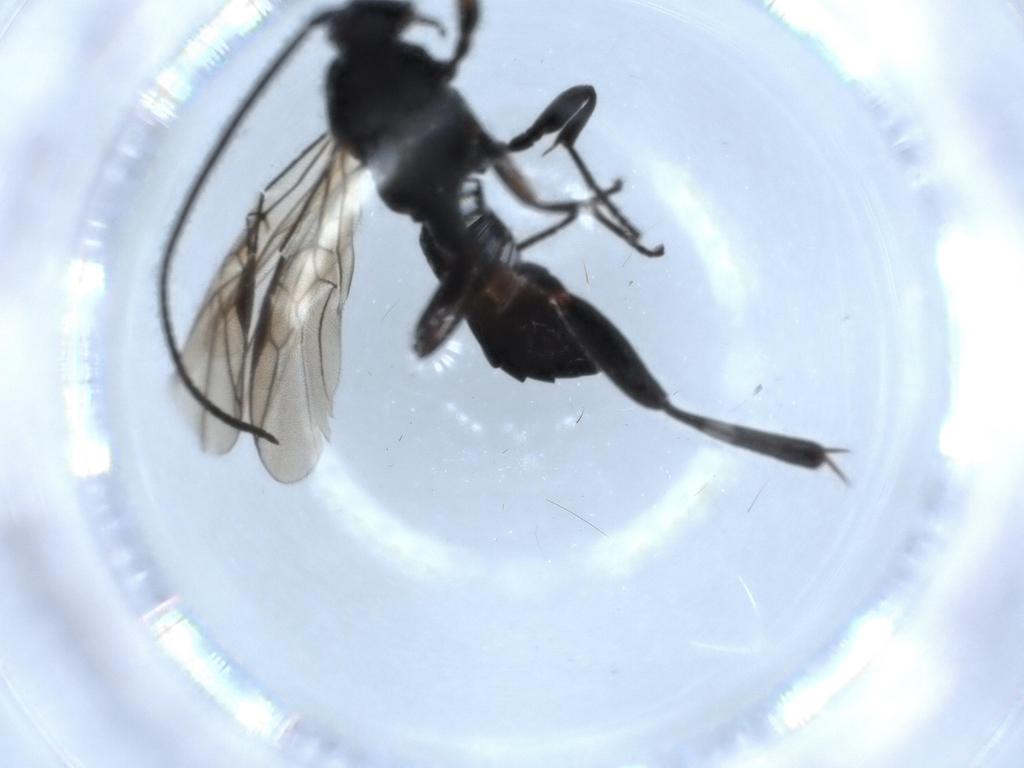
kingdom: Animalia
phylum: Arthropoda
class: Insecta
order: Hymenoptera
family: Braconidae
